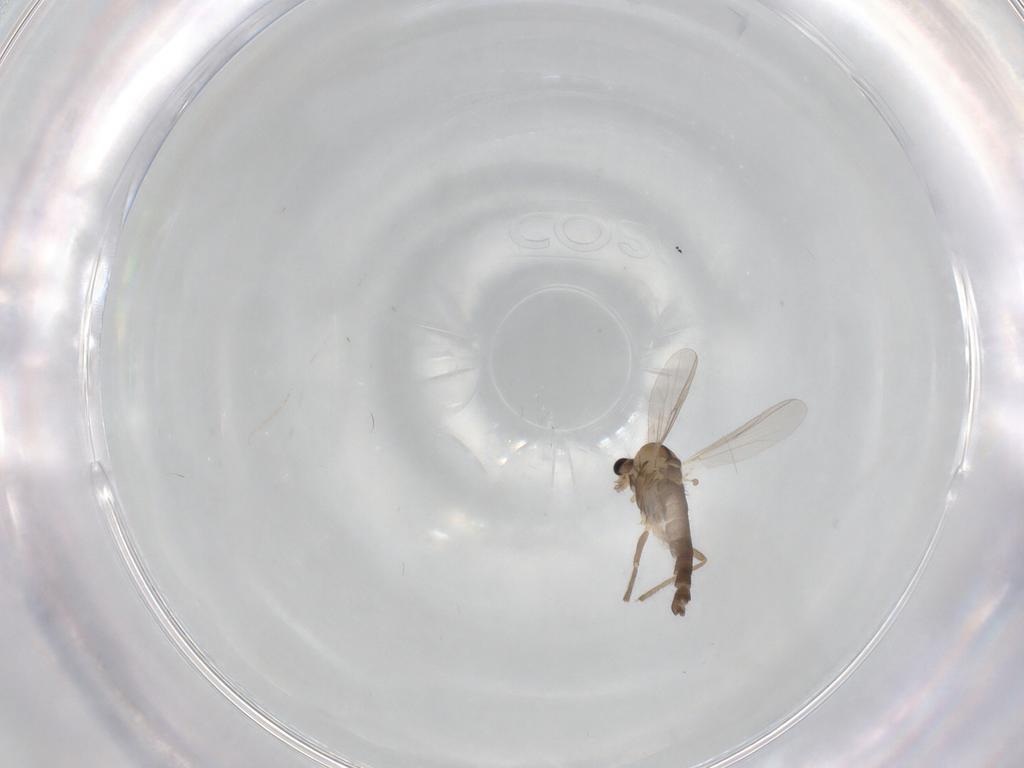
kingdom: Animalia
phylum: Arthropoda
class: Insecta
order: Diptera
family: Chironomidae
